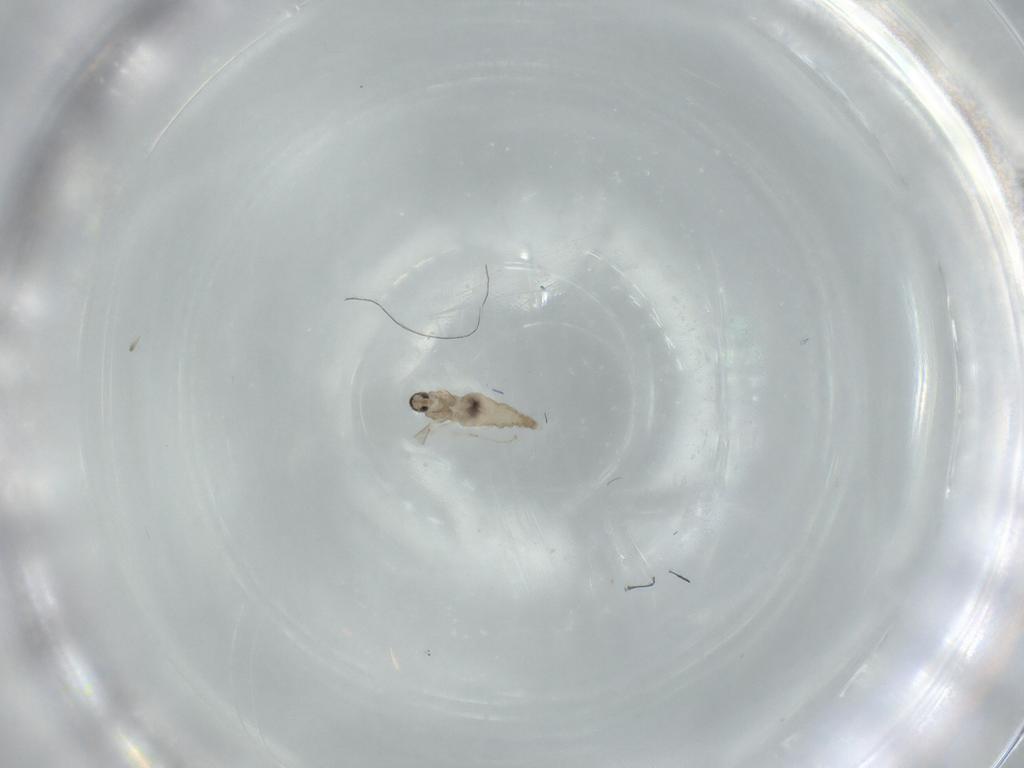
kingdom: Animalia
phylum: Arthropoda
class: Insecta
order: Diptera
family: Cecidomyiidae
